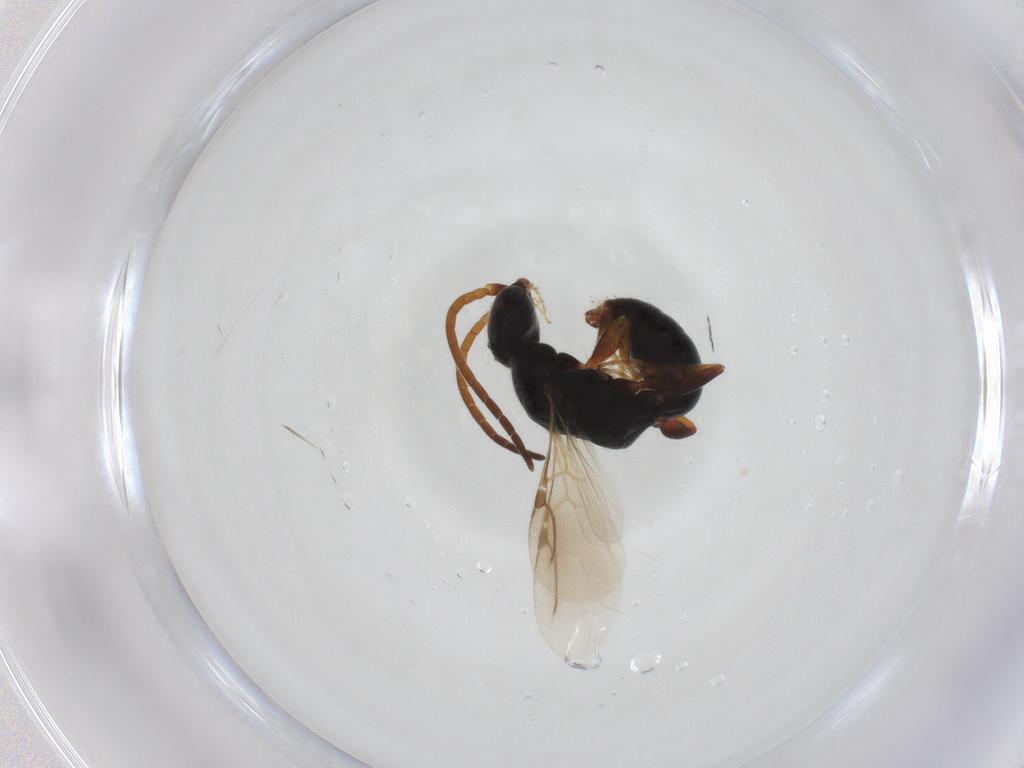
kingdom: Animalia
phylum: Arthropoda
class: Insecta
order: Hymenoptera
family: Bethylidae
